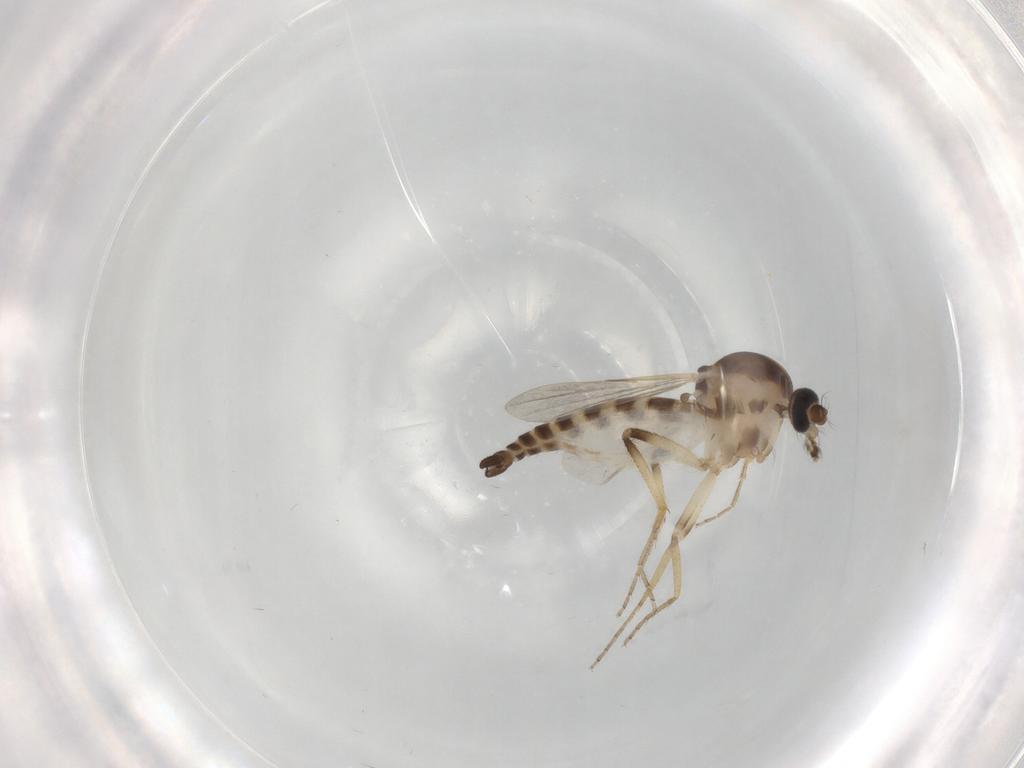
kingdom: Animalia
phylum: Arthropoda
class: Insecta
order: Diptera
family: Ceratopogonidae
